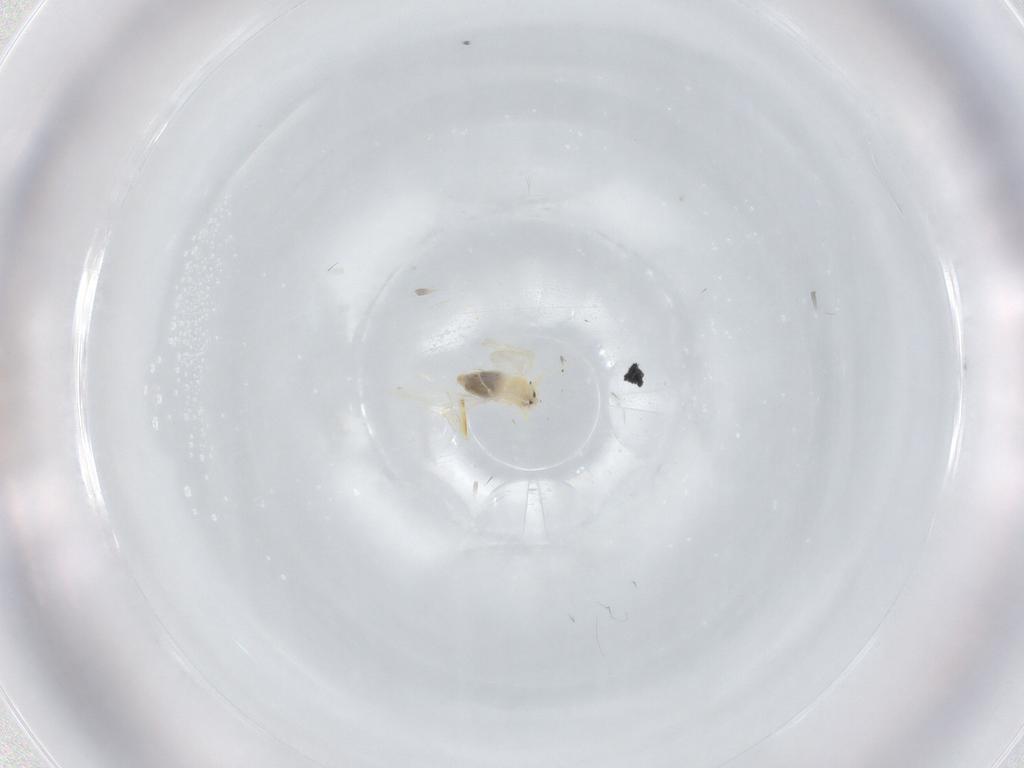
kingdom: Animalia
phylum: Arthropoda
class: Insecta
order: Hemiptera
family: Aleyrodidae
